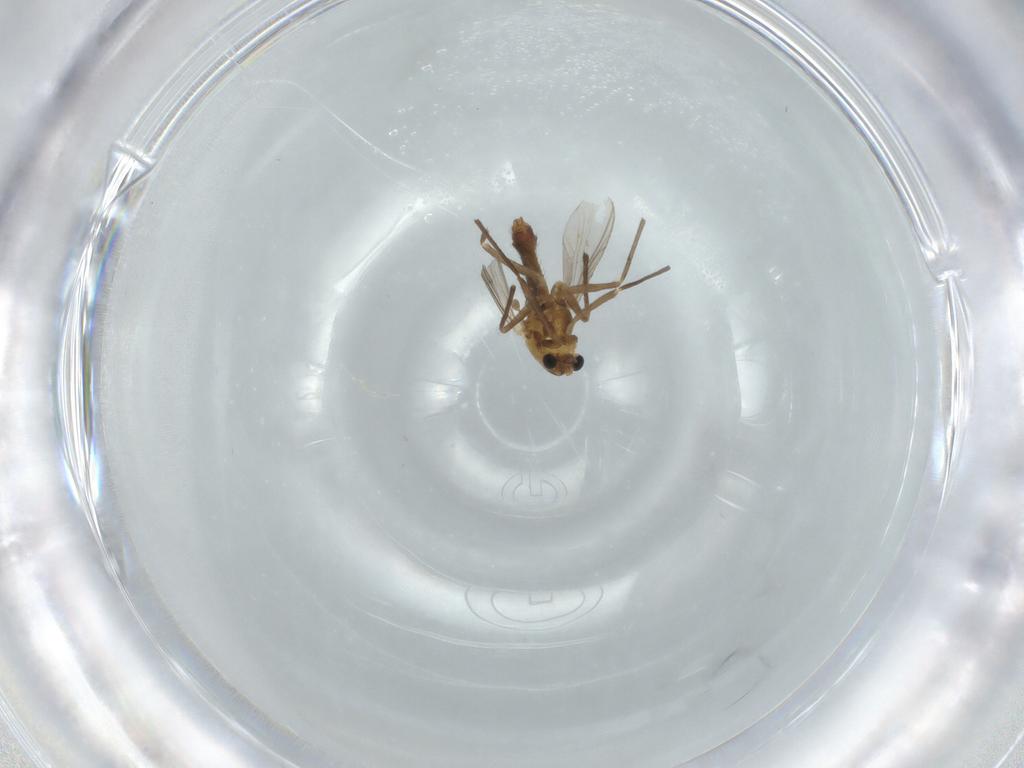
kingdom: Animalia
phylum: Arthropoda
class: Insecta
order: Diptera
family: Chironomidae
